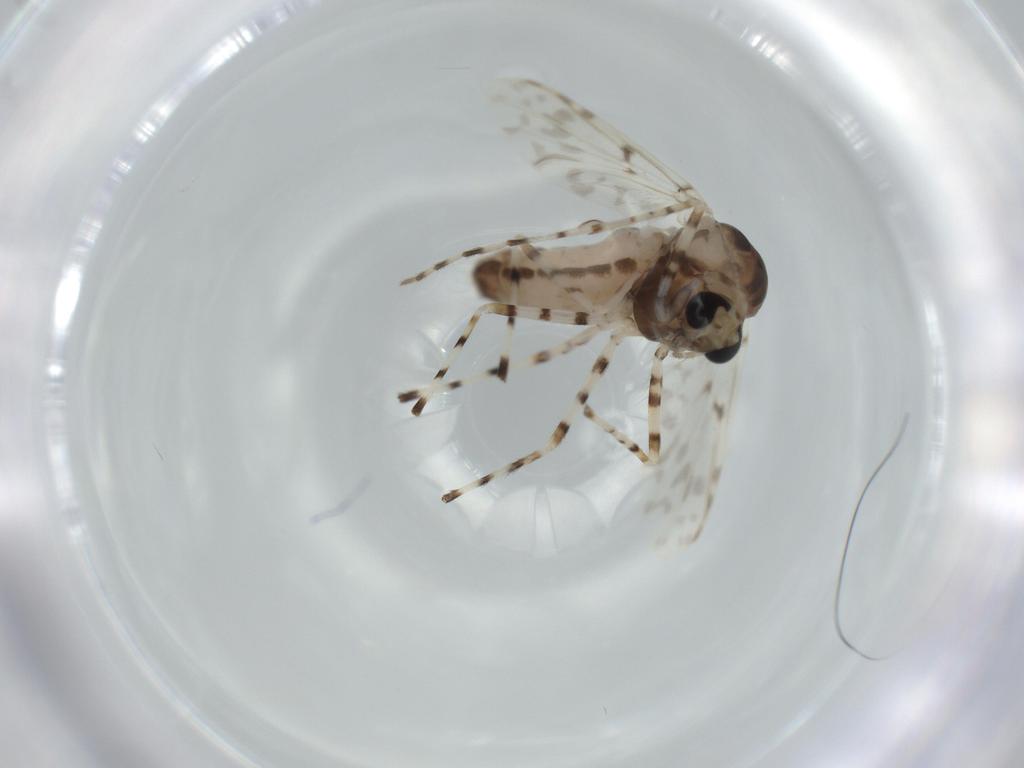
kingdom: Animalia
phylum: Arthropoda
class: Insecta
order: Diptera
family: Chironomidae
